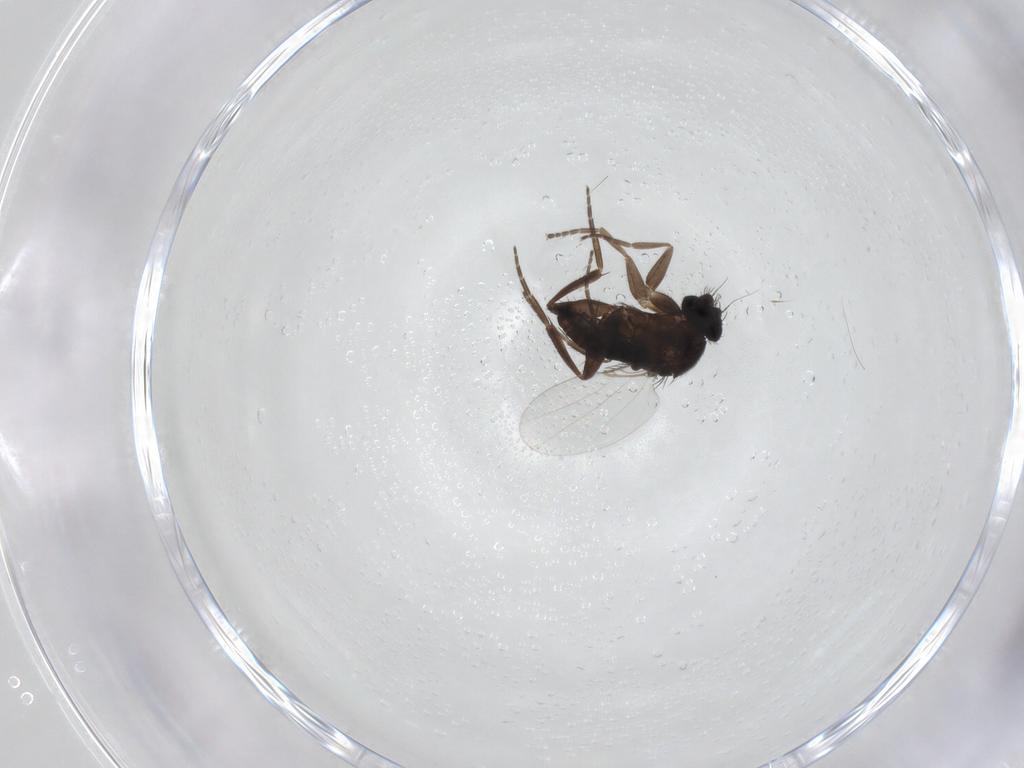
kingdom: Animalia
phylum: Arthropoda
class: Insecta
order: Diptera
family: Phoridae
